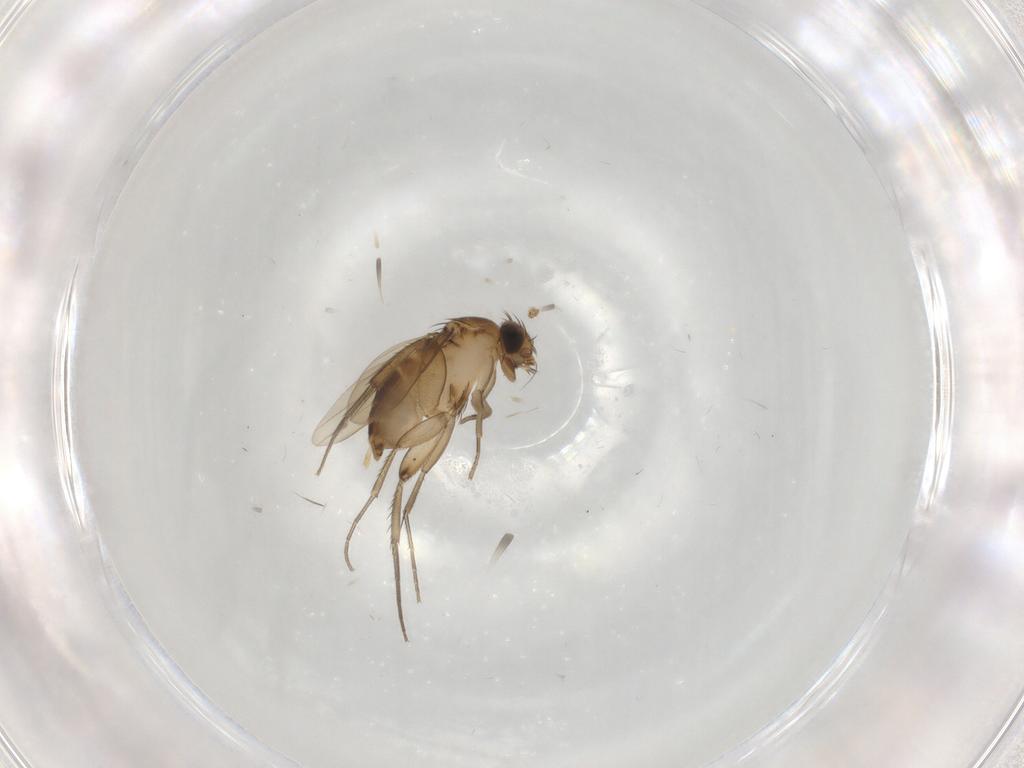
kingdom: Animalia
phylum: Arthropoda
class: Insecta
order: Diptera
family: Phoridae
